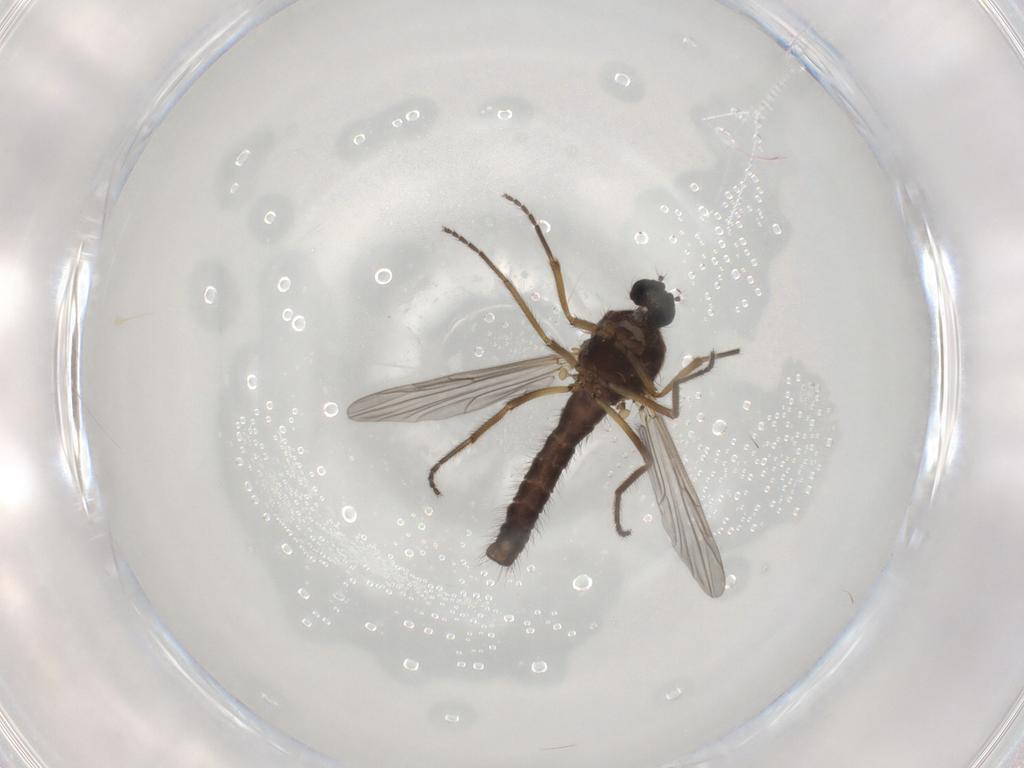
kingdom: Animalia
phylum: Arthropoda
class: Insecta
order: Diptera
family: Ceratopogonidae
